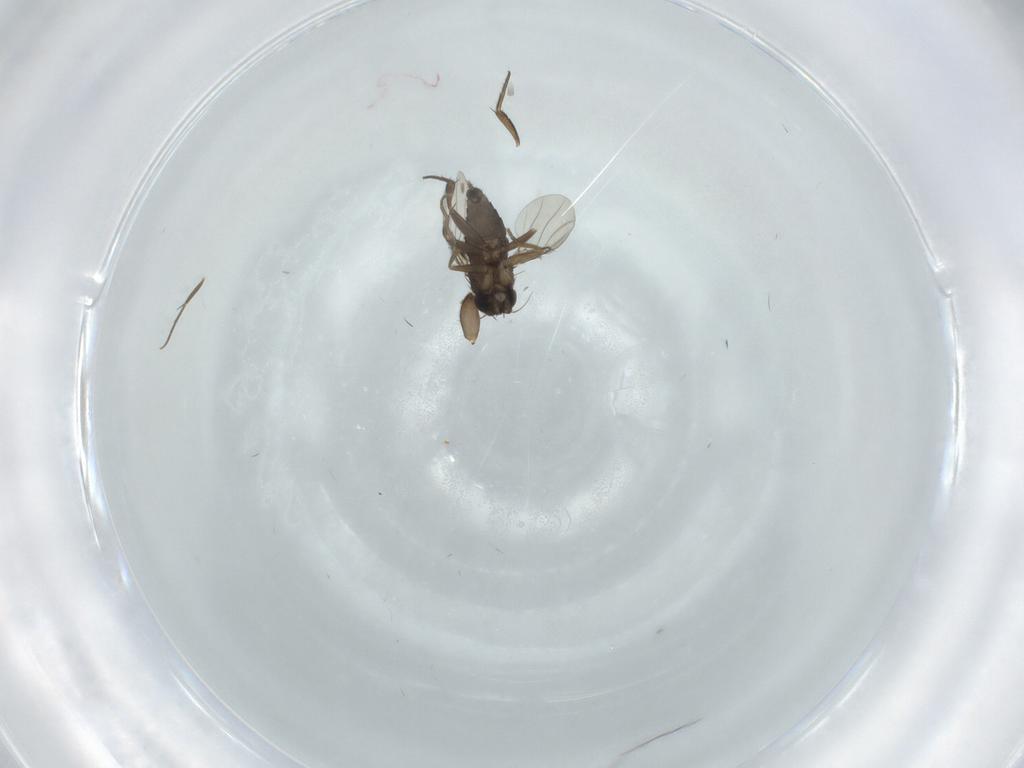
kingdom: Animalia
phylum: Arthropoda
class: Insecta
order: Diptera
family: Phoridae
